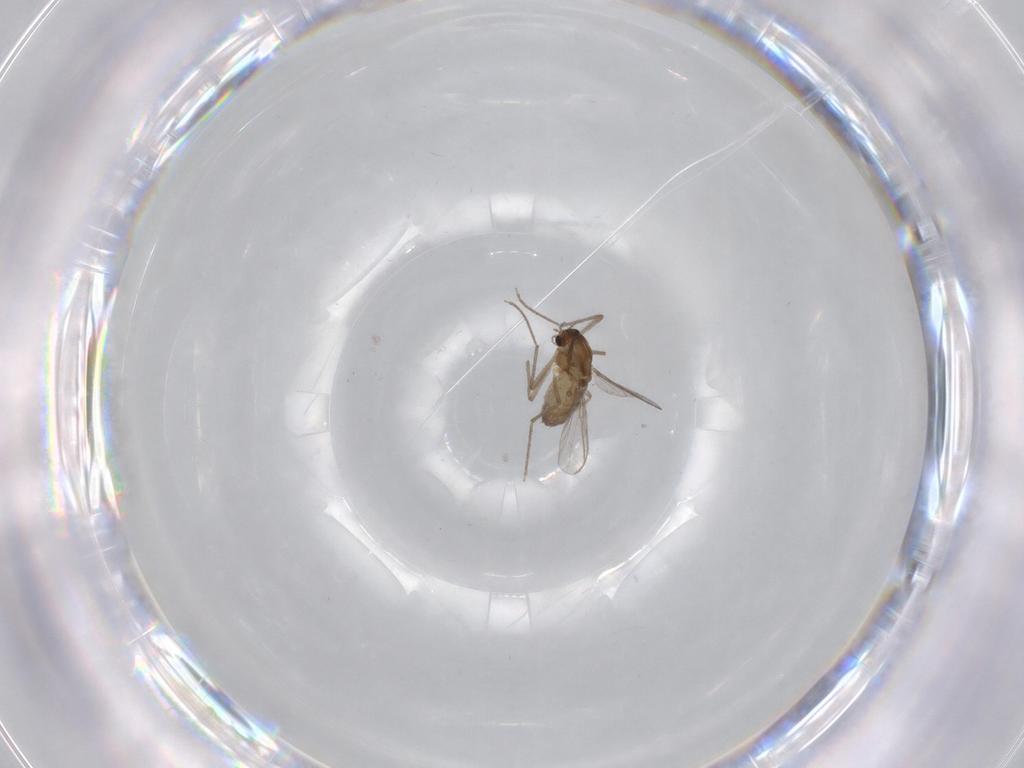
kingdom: Animalia
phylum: Arthropoda
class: Insecta
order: Diptera
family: Chironomidae
